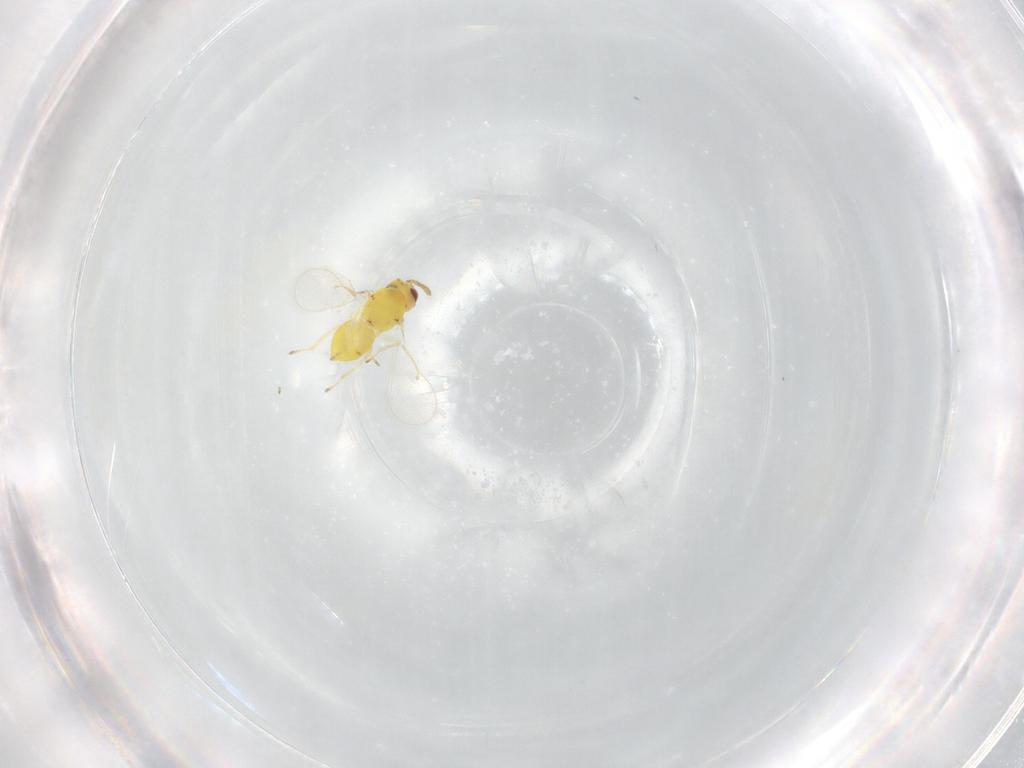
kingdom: Animalia
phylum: Arthropoda
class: Insecta
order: Hymenoptera
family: Eulophidae
